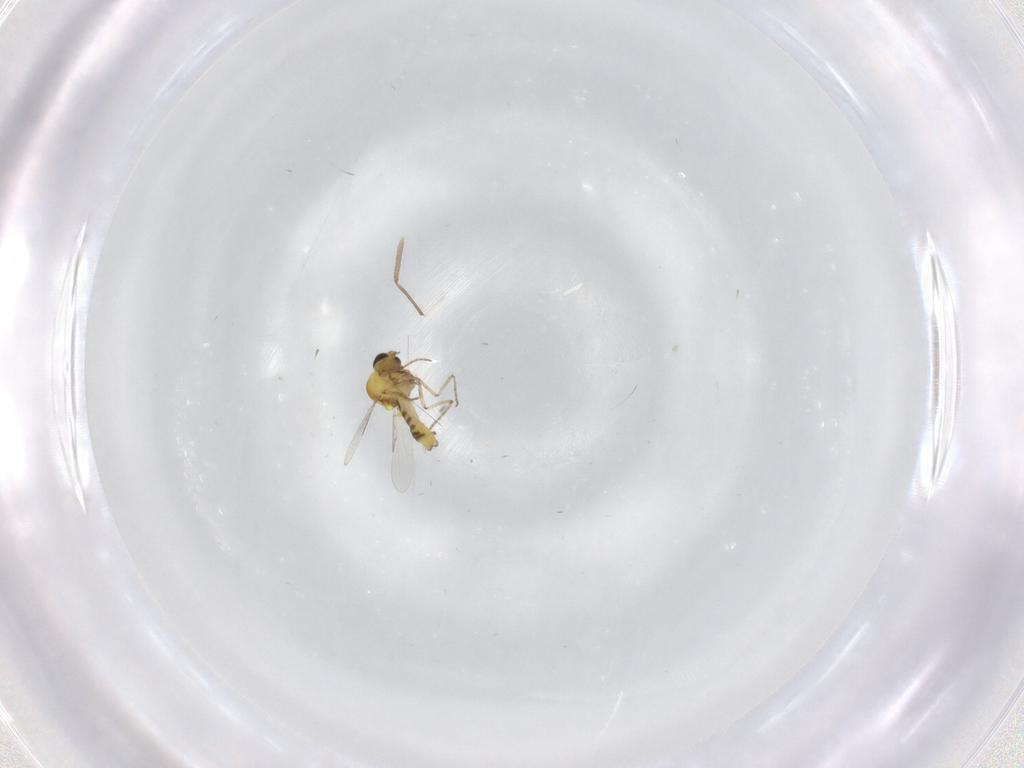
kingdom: Animalia
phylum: Arthropoda
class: Insecta
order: Diptera
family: Ceratopogonidae
